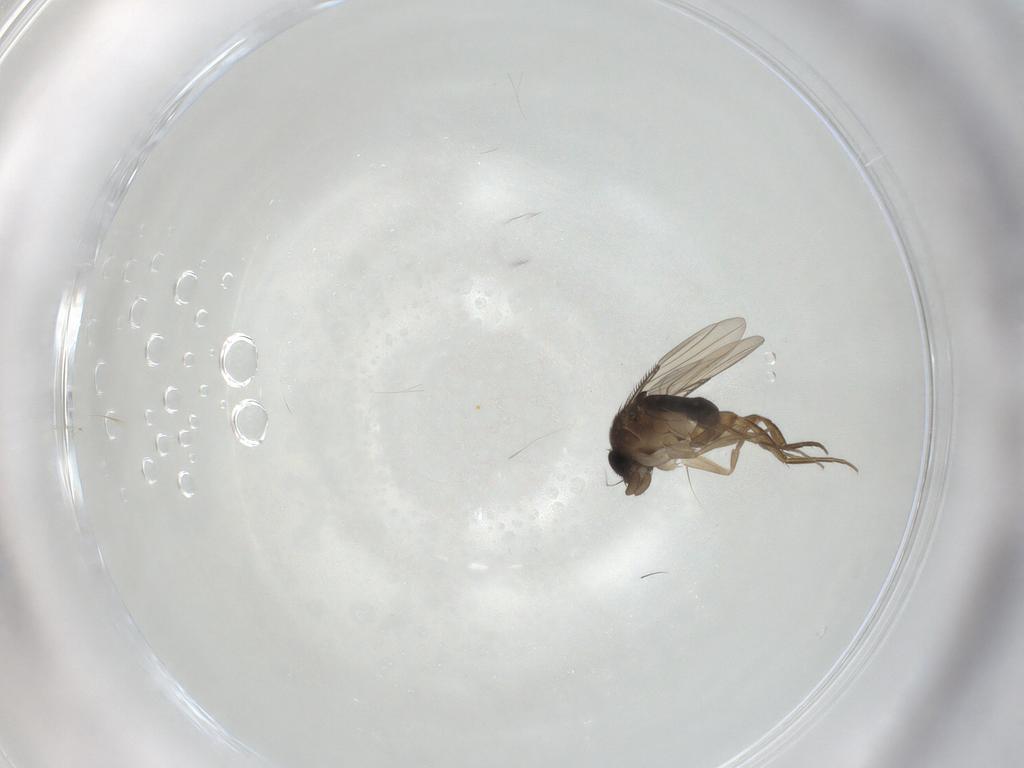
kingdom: Animalia
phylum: Arthropoda
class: Insecta
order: Diptera
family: Phoridae
